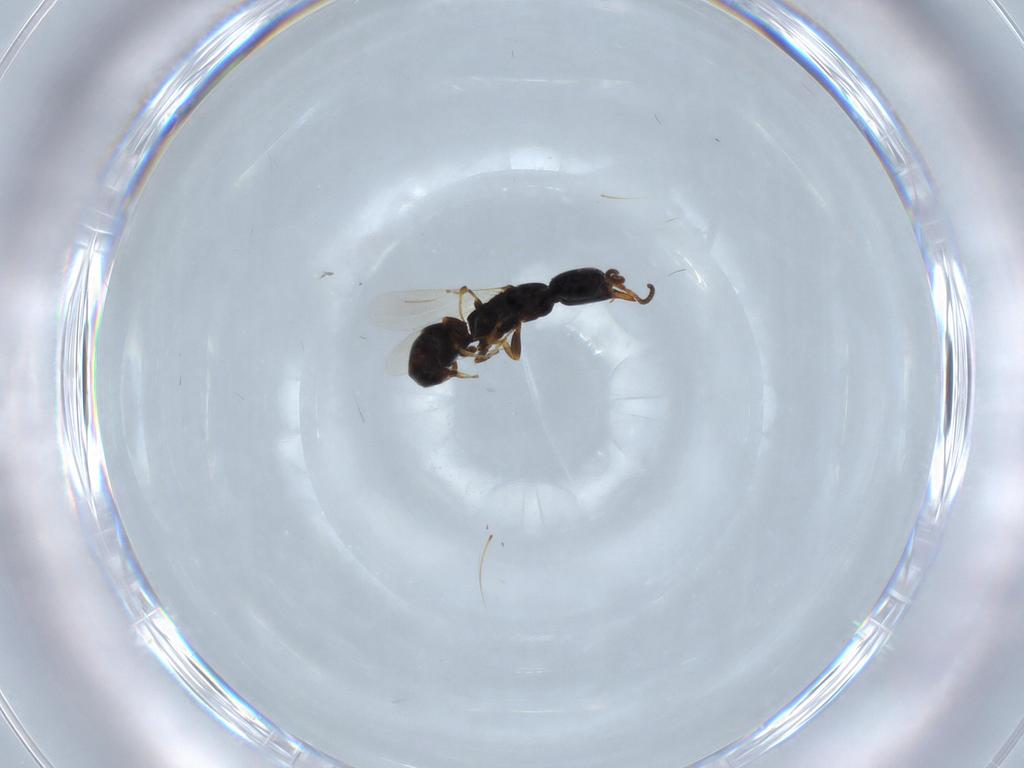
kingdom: Animalia
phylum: Arthropoda
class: Insecta
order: Hymenoptera
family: Bethylidae
